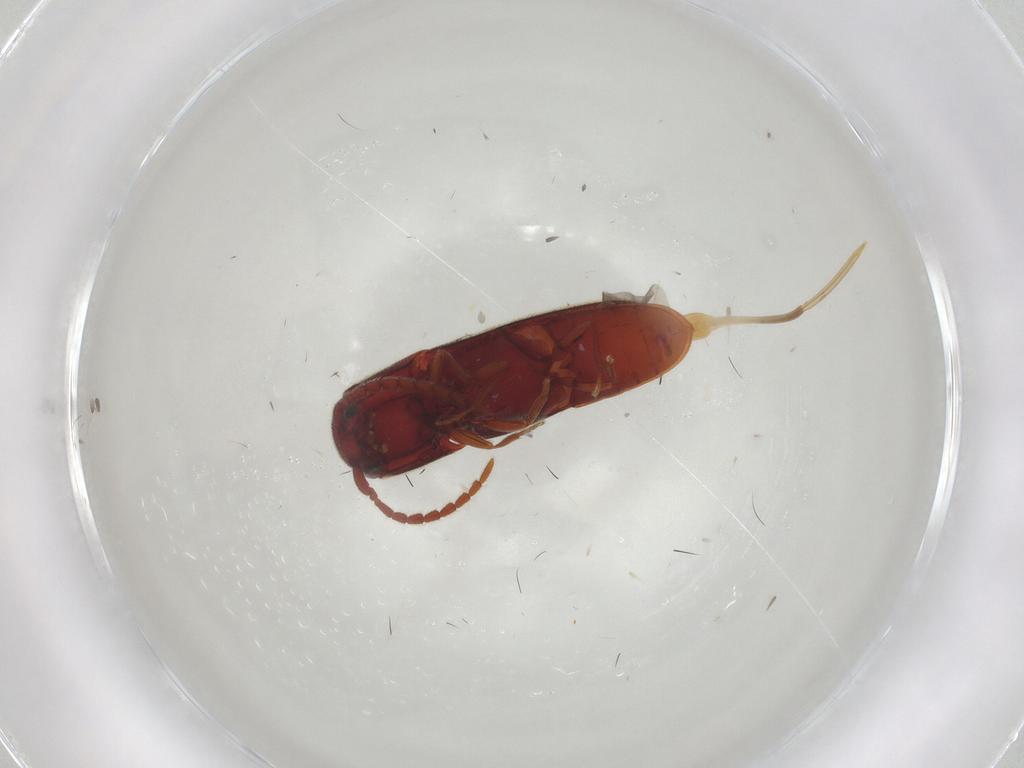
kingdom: Animalia
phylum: Arthropoda
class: Insecta
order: Coleoptera
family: Eucnemidae
